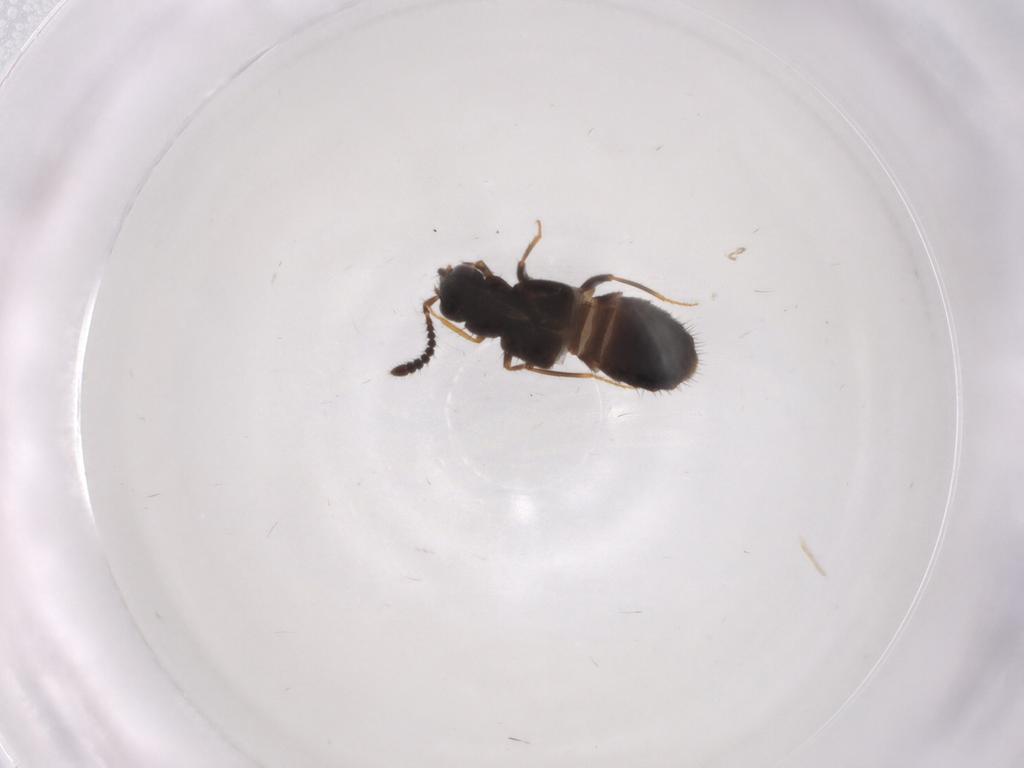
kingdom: Animalia
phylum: Arthropoda
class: Insecta
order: Coleoptera
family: Staphylinidae
